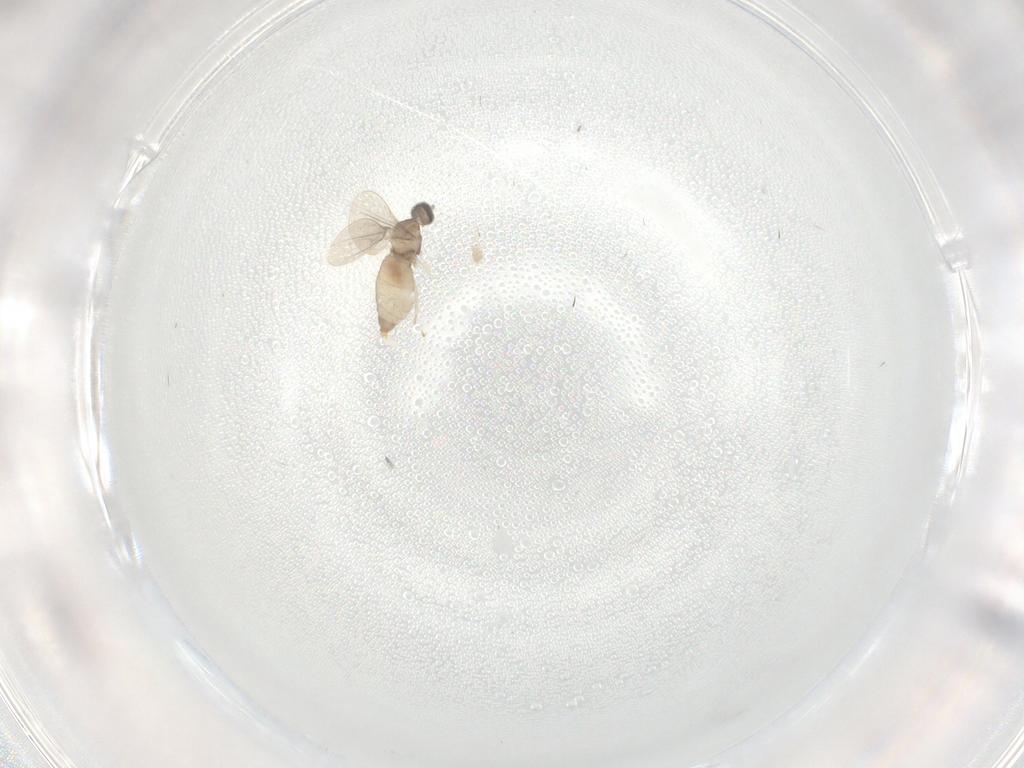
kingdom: Animalia
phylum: Arthropoda
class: Insecta
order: Diptera
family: Cecidomyiidae
